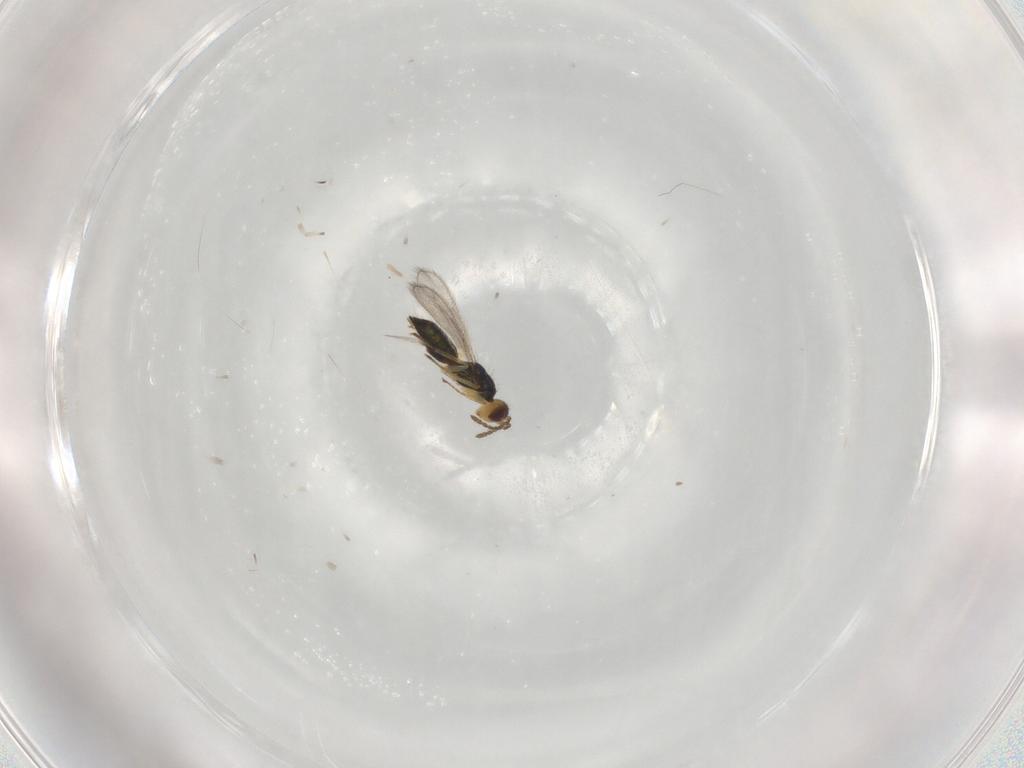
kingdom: Animalia
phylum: Arthropoda
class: Insecta
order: Hymenoptera
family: Eulophidae
